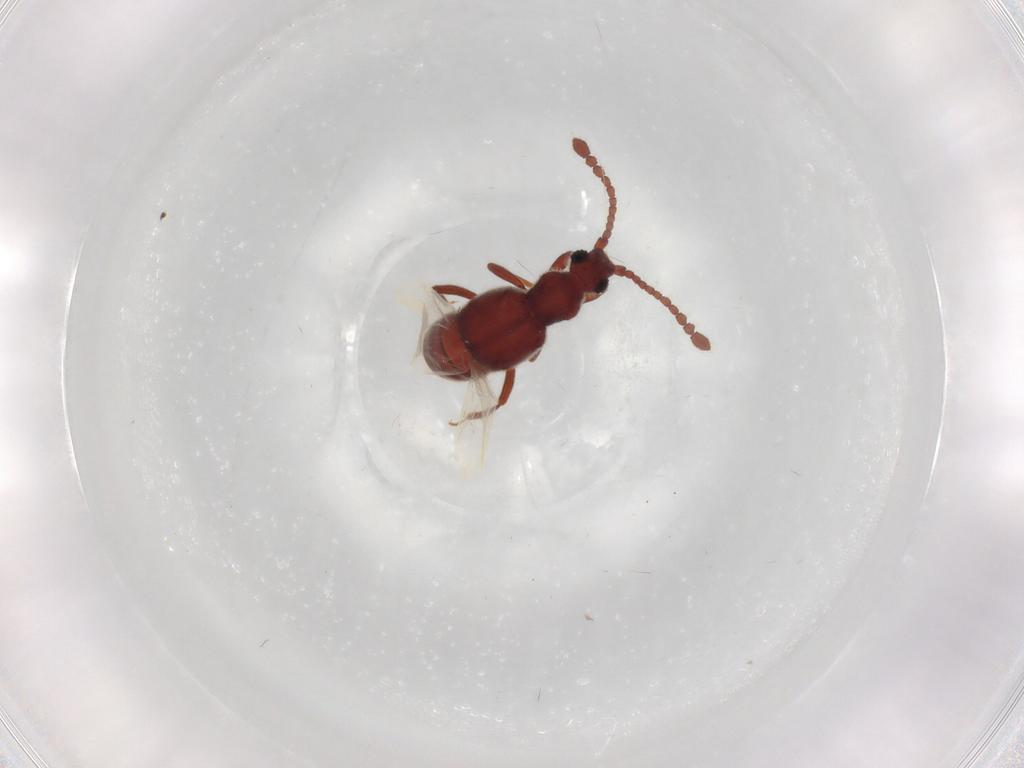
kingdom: Animalia
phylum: Arthropoda
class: Insecta
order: Coleoptera
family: Staphylinidae
